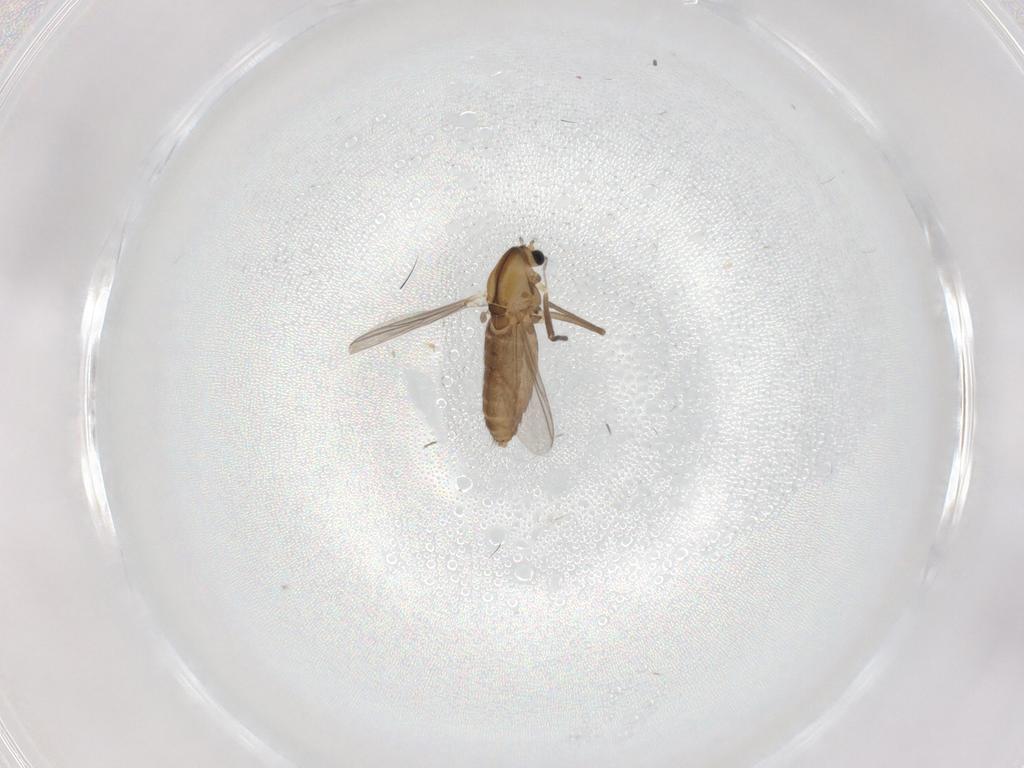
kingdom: Animalia
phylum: Arthropoda
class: Insecta
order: Diptera
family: Chironomidae
